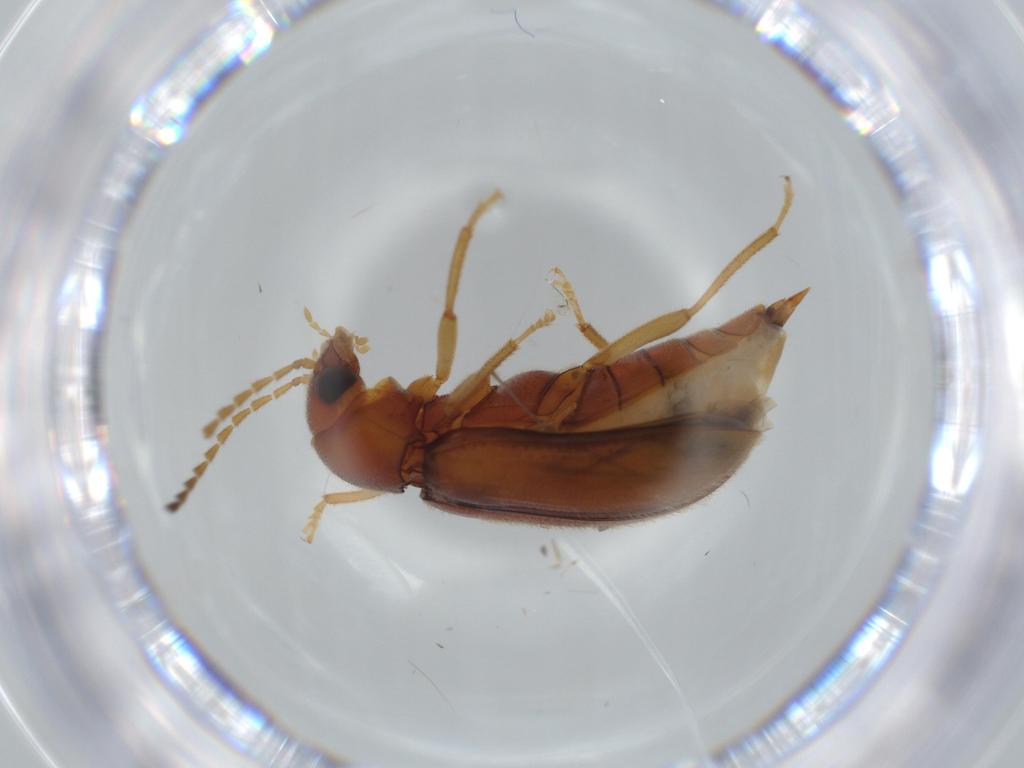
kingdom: Animalia
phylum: Arthropoda
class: Insecta
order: Coleoptera
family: Ptilodactylidae
